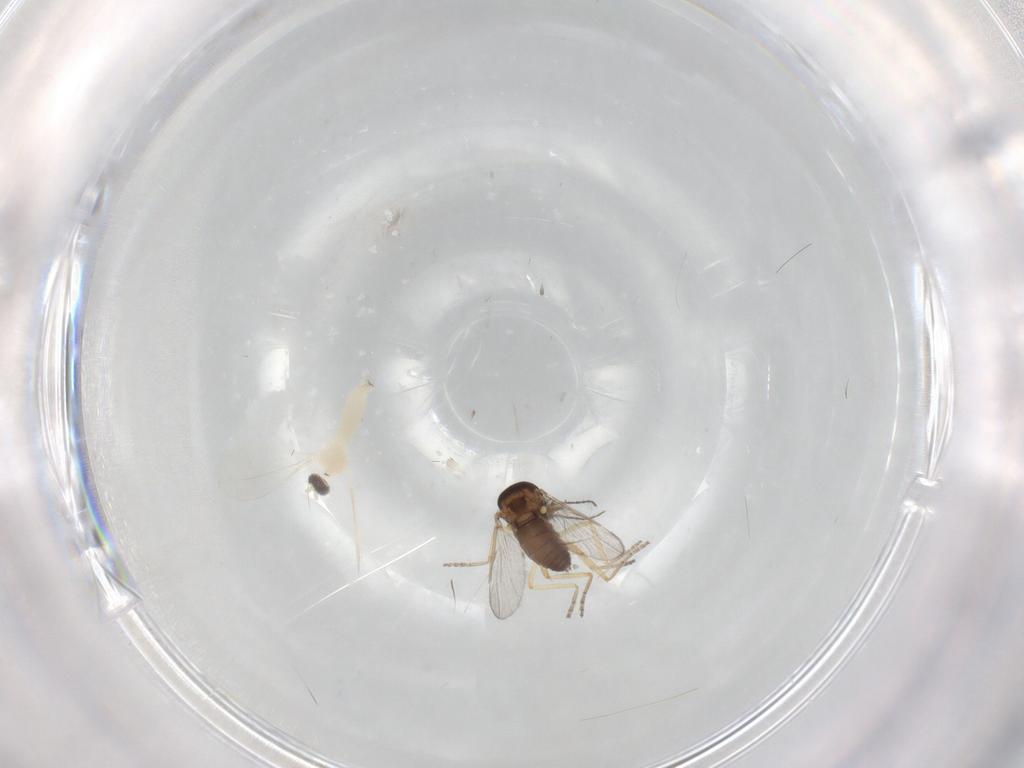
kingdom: Animalia
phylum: Arthropoda
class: Insecta
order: Diptera
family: Cecidomyiidae
